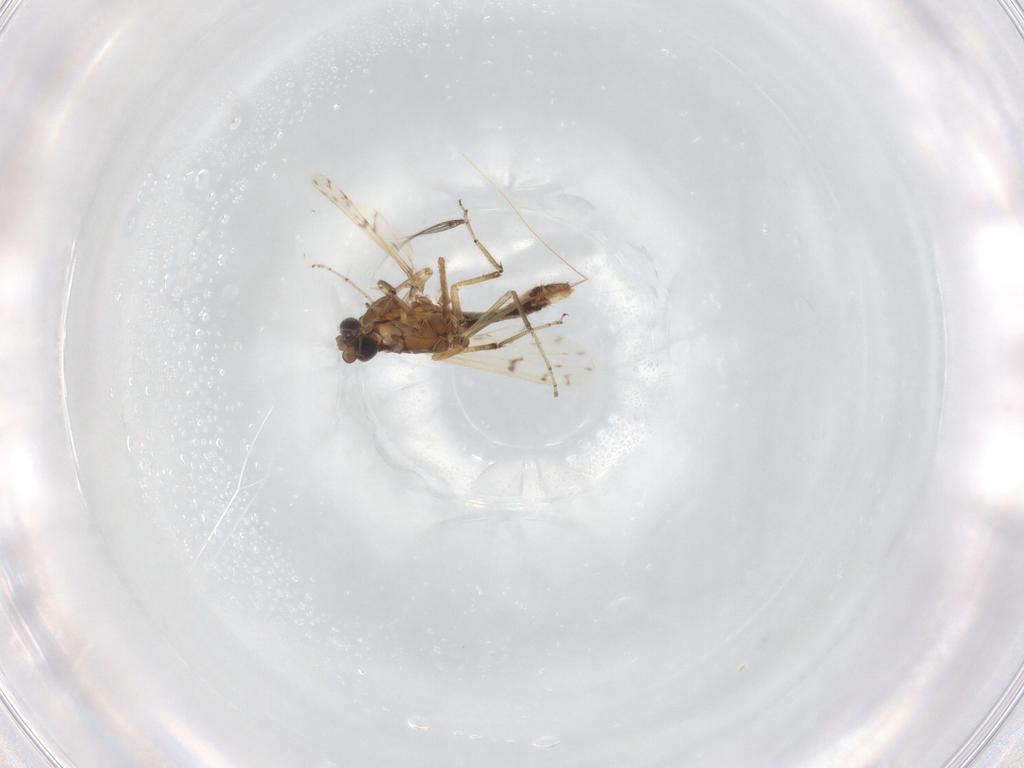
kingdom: Animalia
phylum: Arthropoda
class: Insecta
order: Diptera
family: Ceratopogonidae
